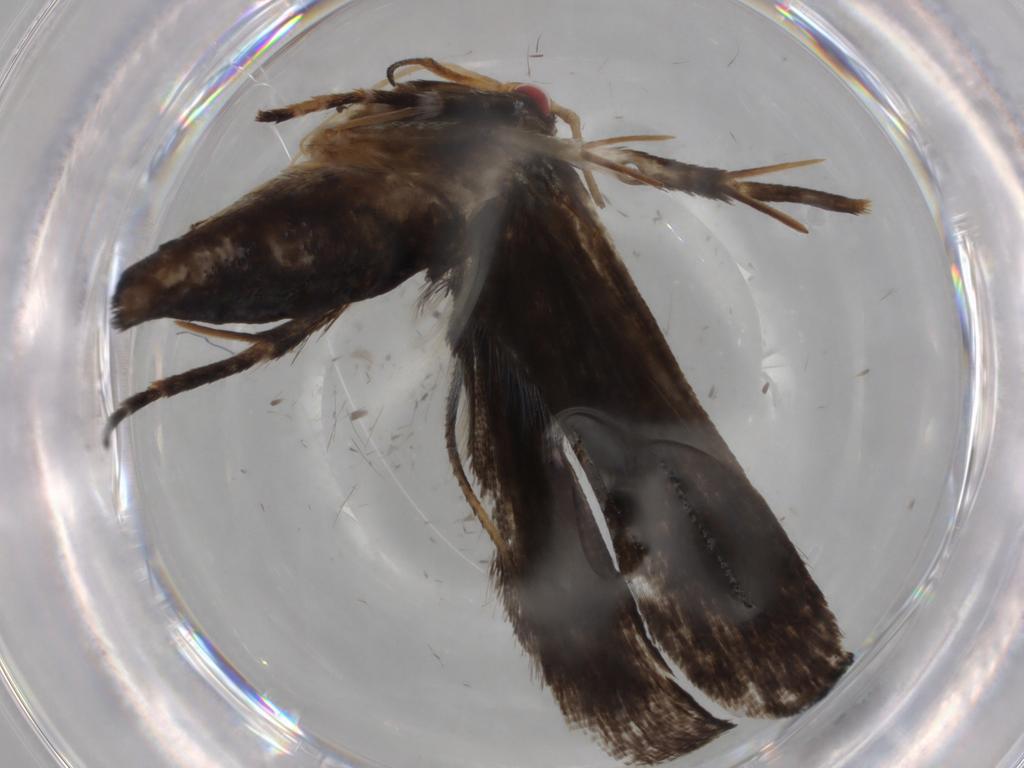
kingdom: Animalia
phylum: Arthropoda
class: Insecta
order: Lepidoptera
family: Gelechiidae
